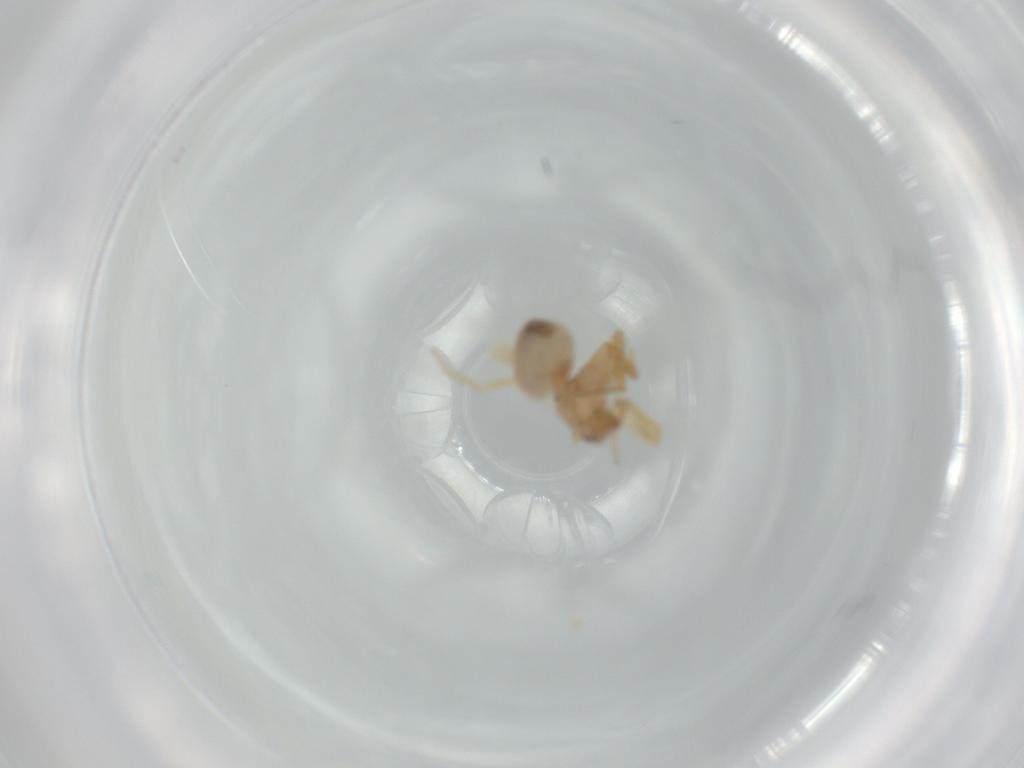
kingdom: Animalia
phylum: Arthropoda
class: Arachnida
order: Araneae
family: Oonopidae
